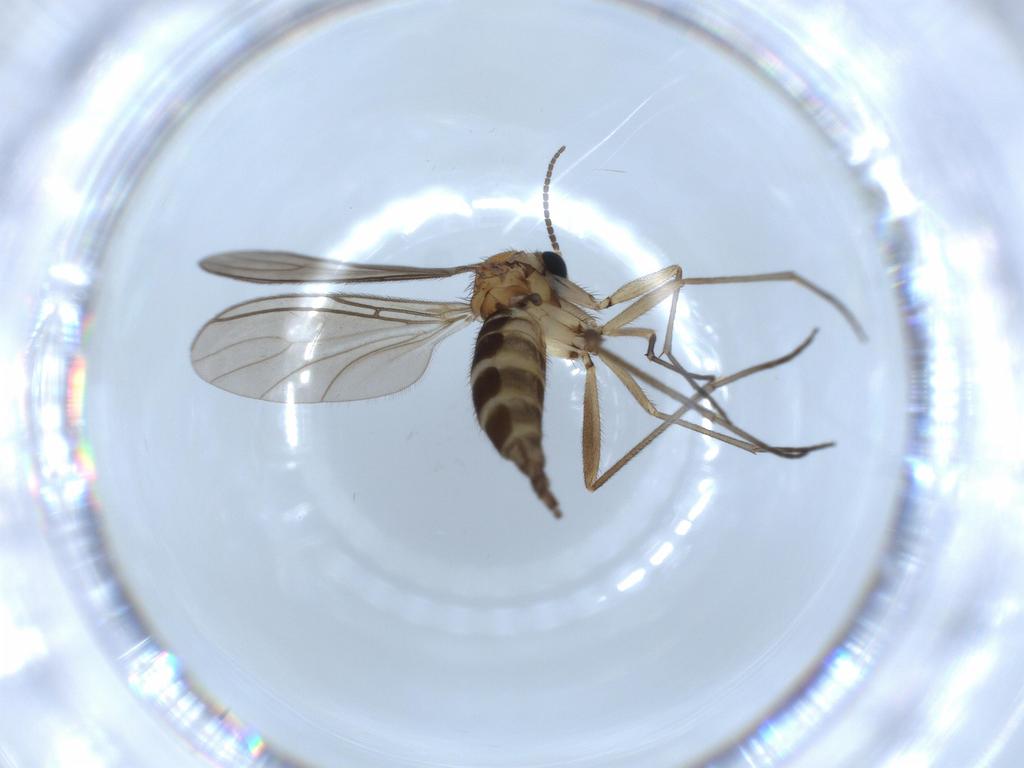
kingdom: Animalia
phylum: Arthropoda
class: Insecta
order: Diptera
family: Sciaridae
